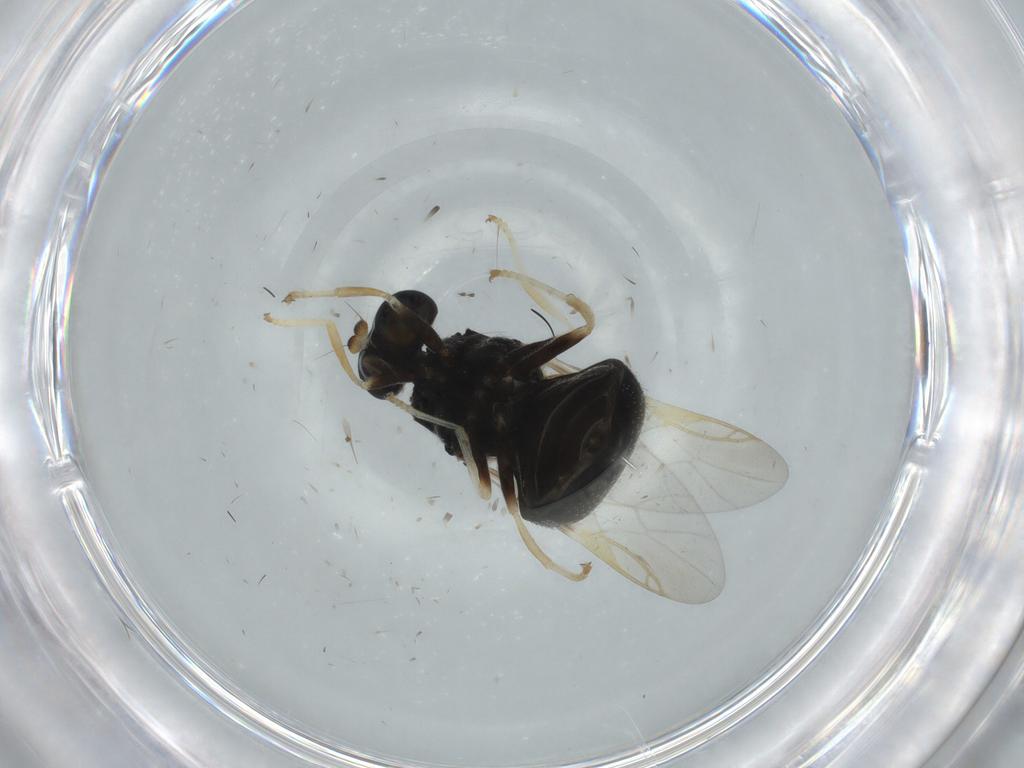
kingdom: Animalia
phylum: Arthropoda
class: Insecta
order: Diptera
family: Stratiomyidae
